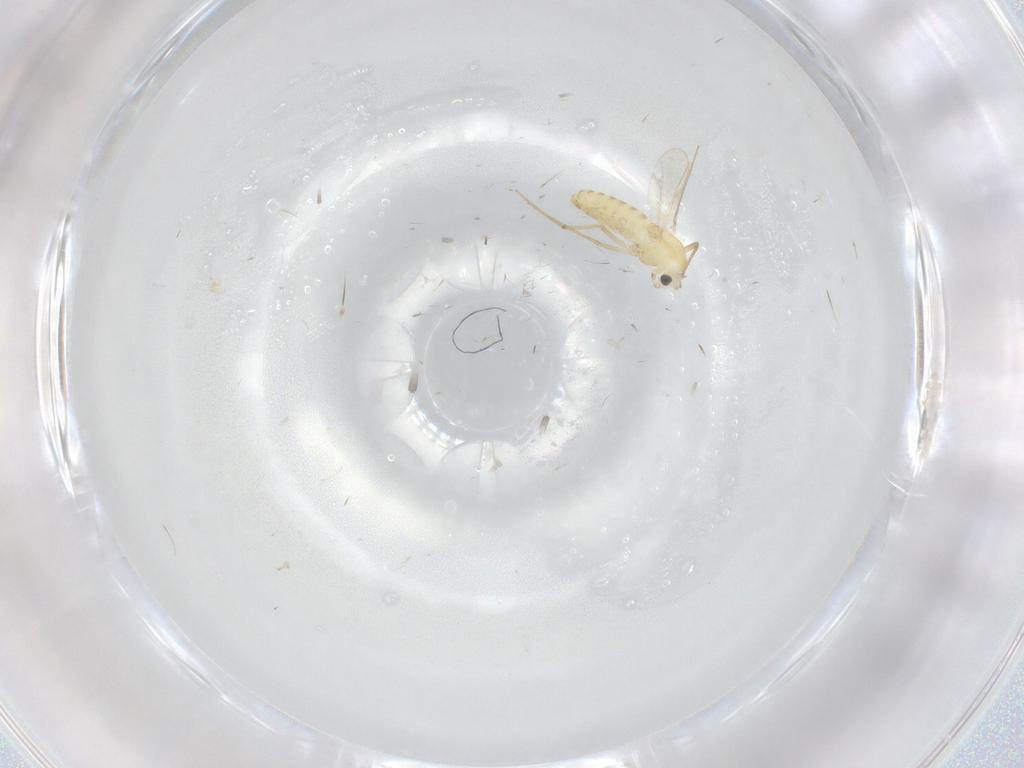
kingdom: Animalia
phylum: Arthropoda
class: Insecta
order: Diptera
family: Chironomidae
